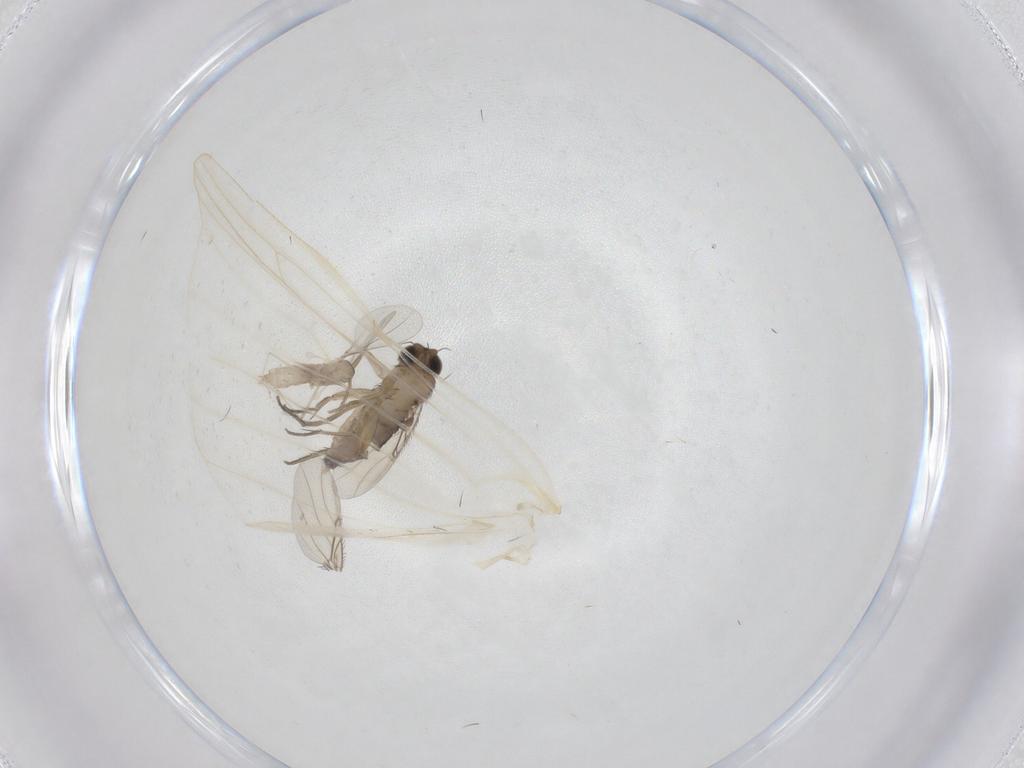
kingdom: Animalia
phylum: Arthropoda
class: Insecta
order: Diptera
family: Phoridae
